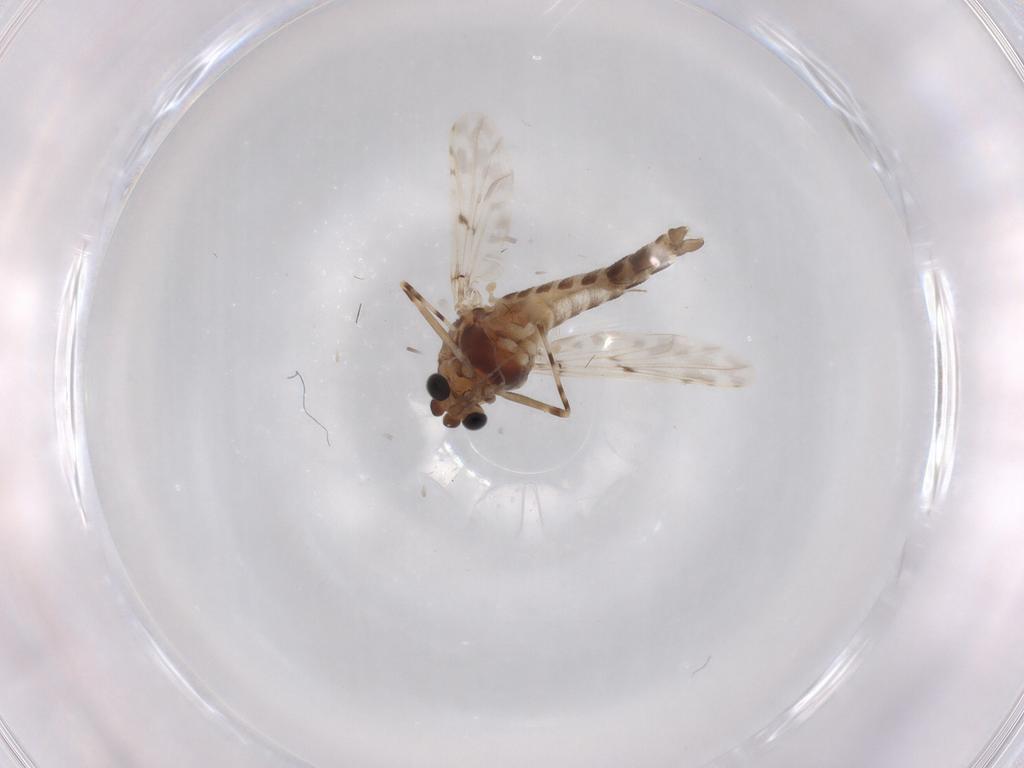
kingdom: Animalia
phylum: Arthropoda
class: Insecta
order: Diptera
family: Chironomidae
